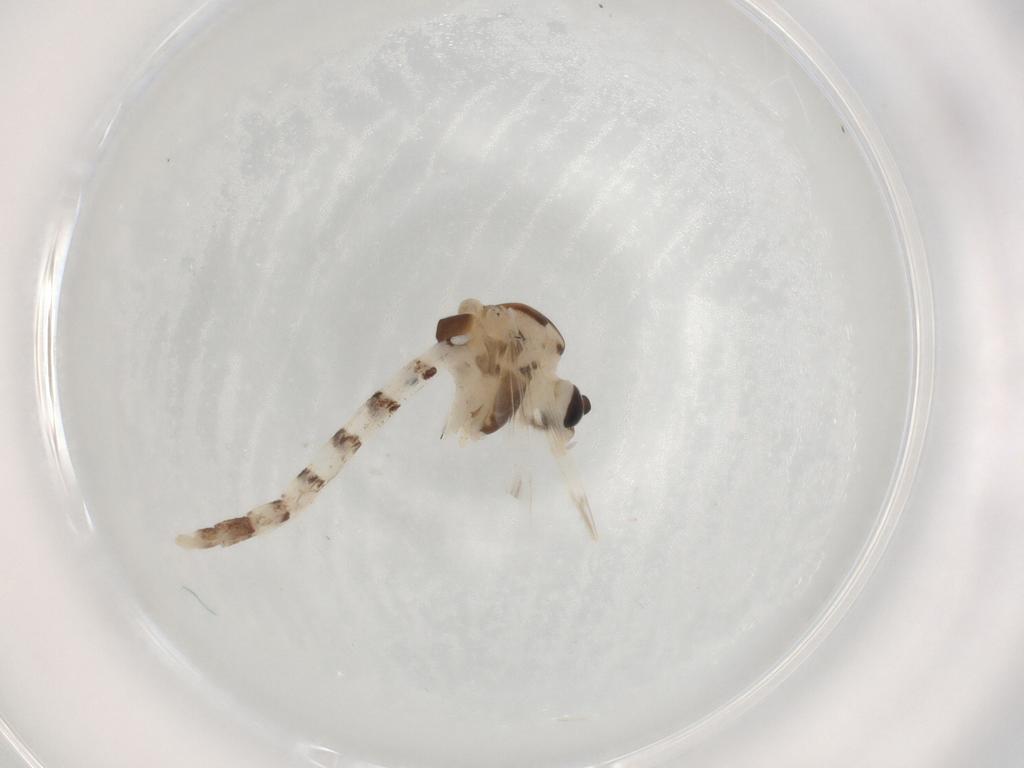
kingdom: Animalia
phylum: Arthropoda
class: Insecta
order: Diptera
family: Chironomidae
